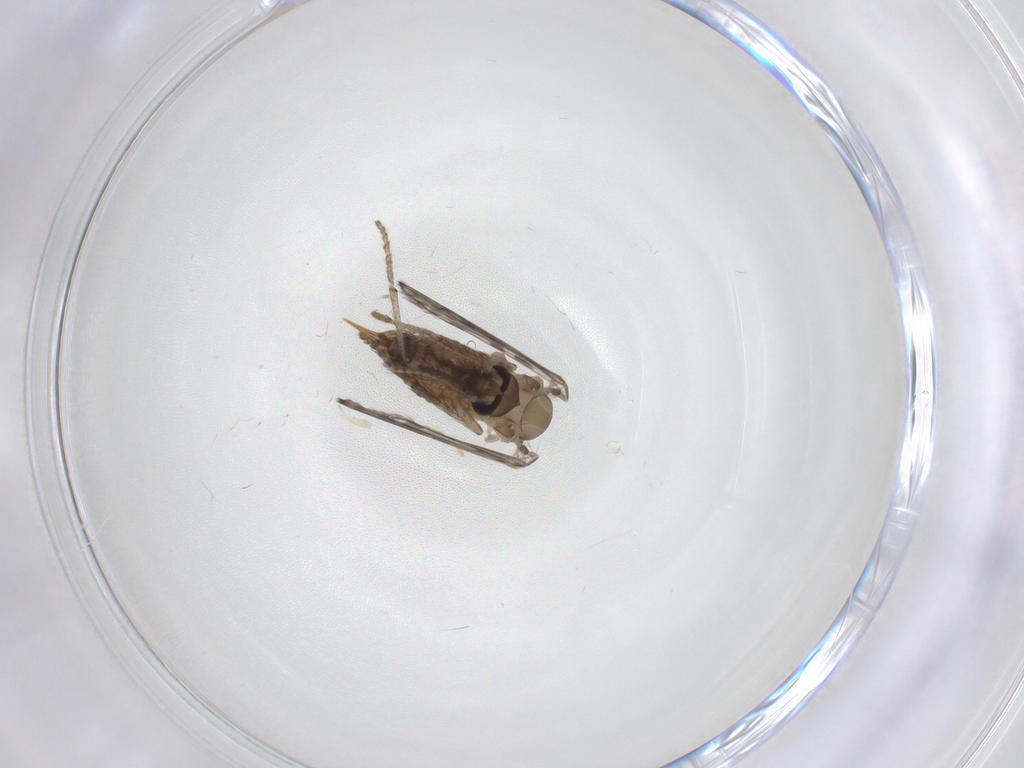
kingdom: Animalia
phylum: Arthropoda
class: Insecta
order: Diptera
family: Psychodidae
